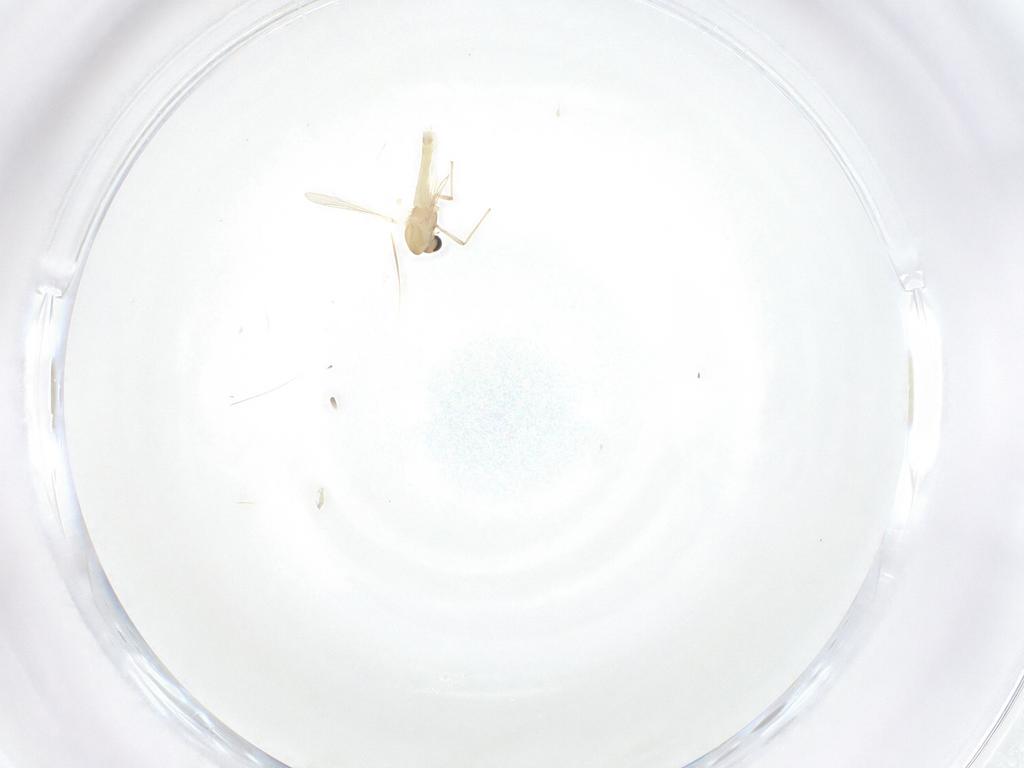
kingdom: Animalia
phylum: Arthropoda
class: Insecta
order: Diptera
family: Chironomidae
